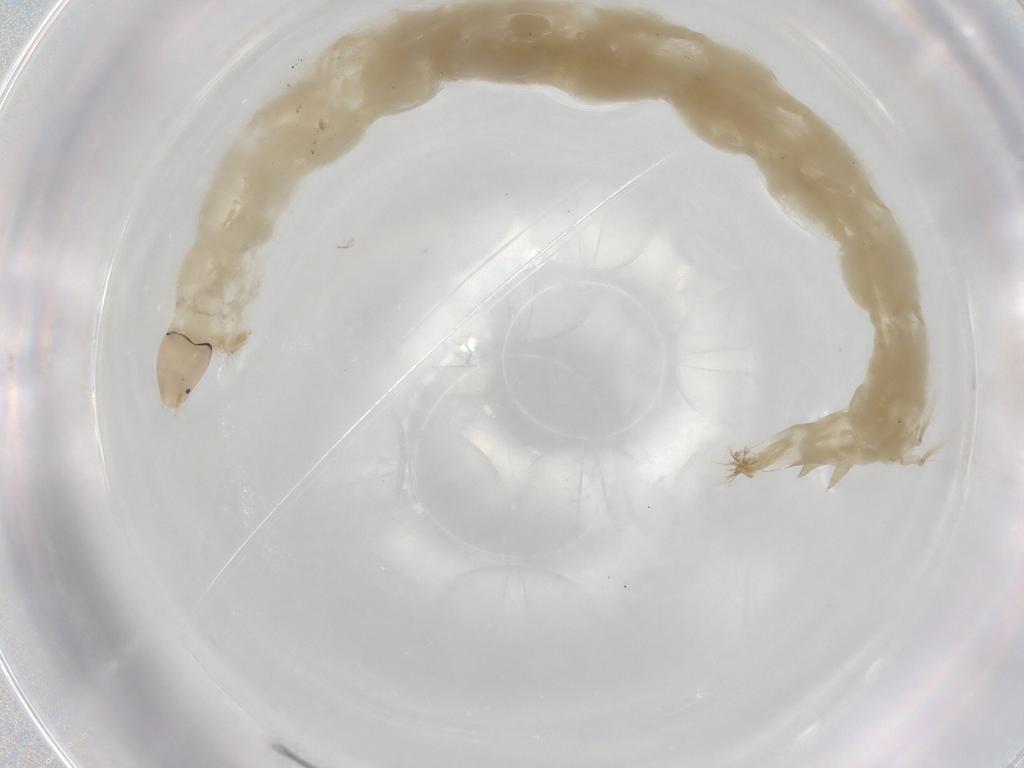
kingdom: Animalia
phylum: Arthropoda
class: Insecta
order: Diptera
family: Chironomidae
